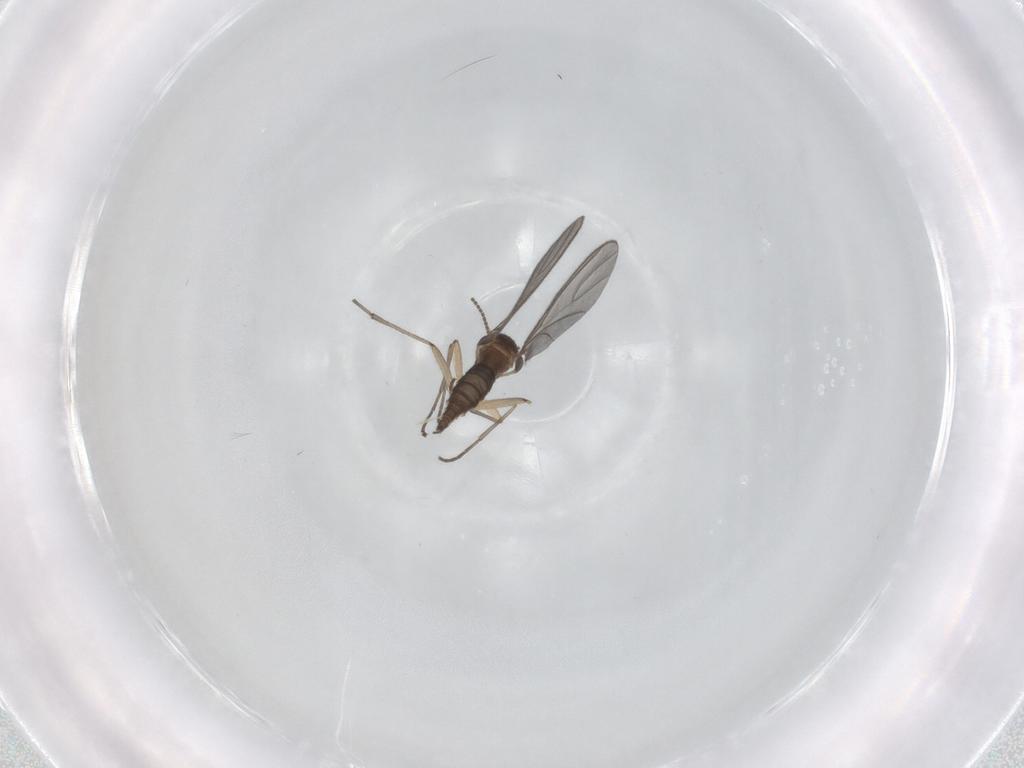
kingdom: Animalia
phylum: Arthropoda
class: Insecta
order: Diptera
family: Sciaridae
